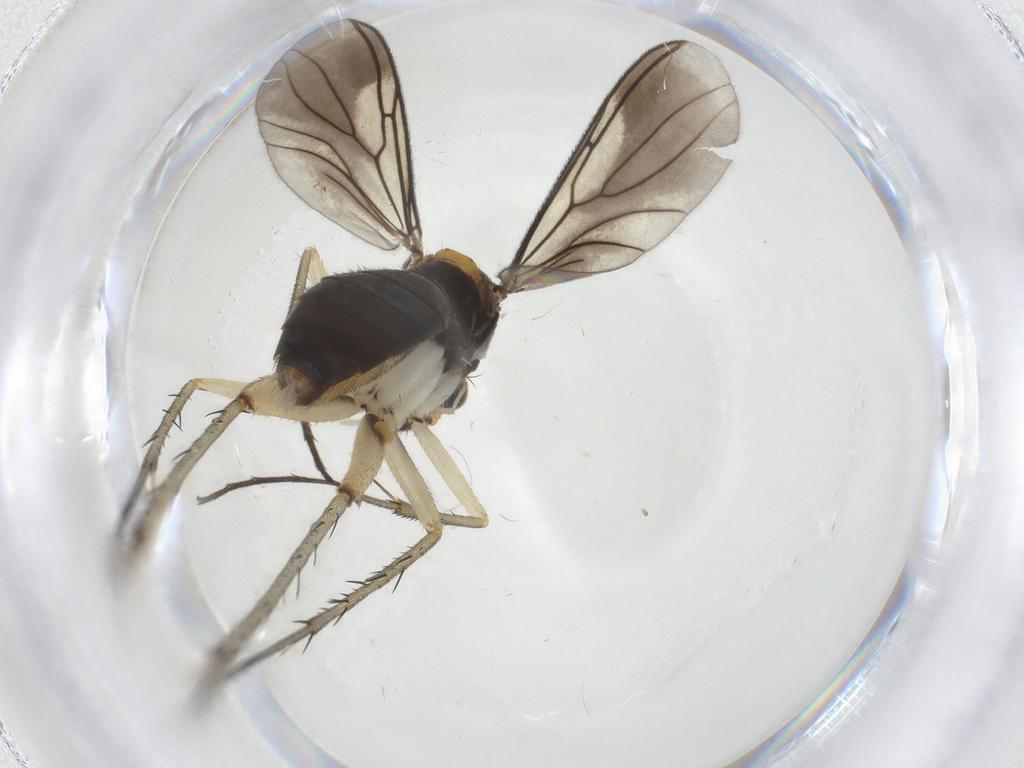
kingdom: Animalia
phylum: Arthropoda
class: Insecta
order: Diptera
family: Mycetophilidae
